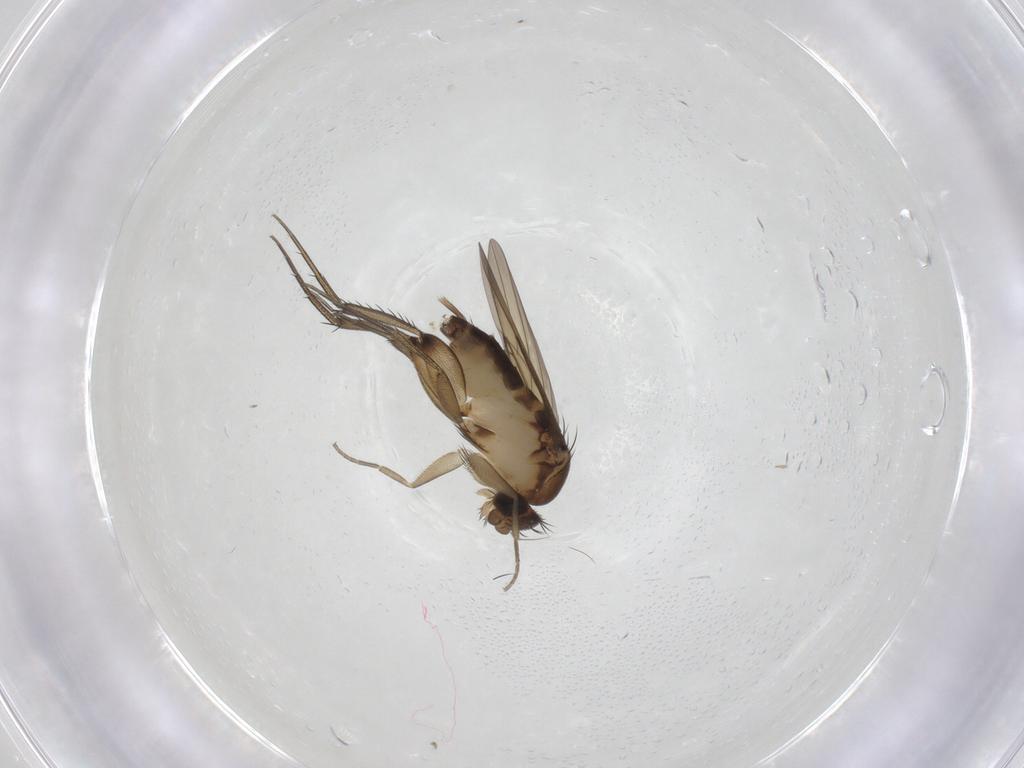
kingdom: Animalia
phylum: Arthropoda
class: Insecta
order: Diptera
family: Phoridae
